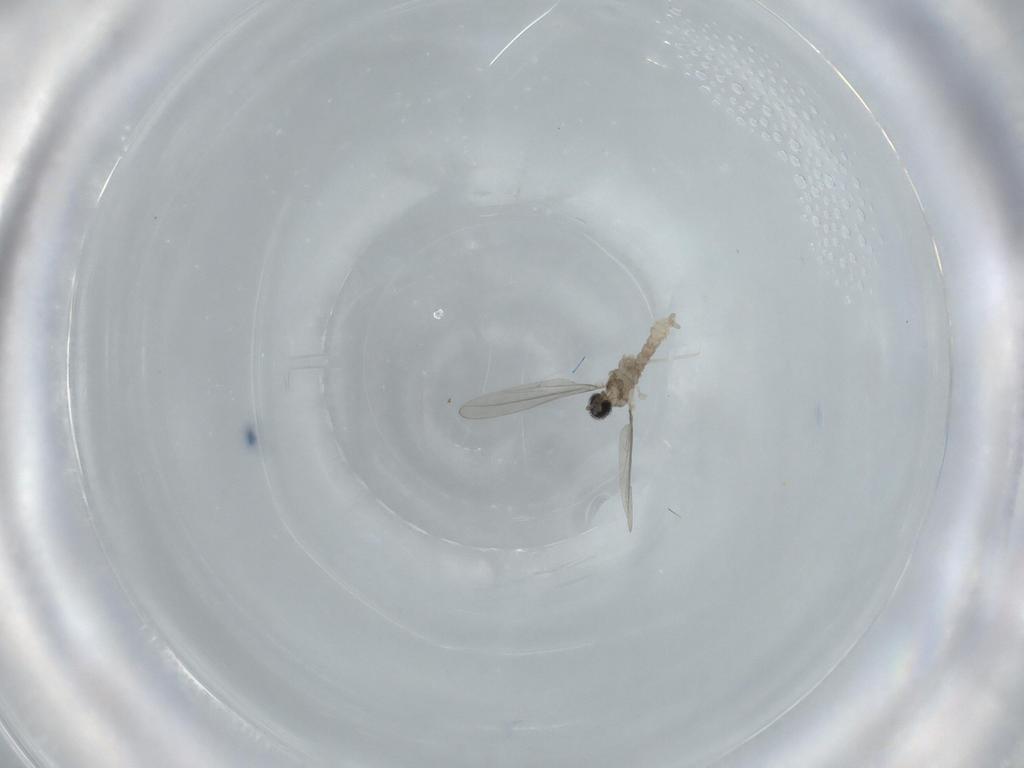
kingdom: Animalia
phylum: Arthropoda
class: Insecta
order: Diptera
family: Cecidomyiidae
